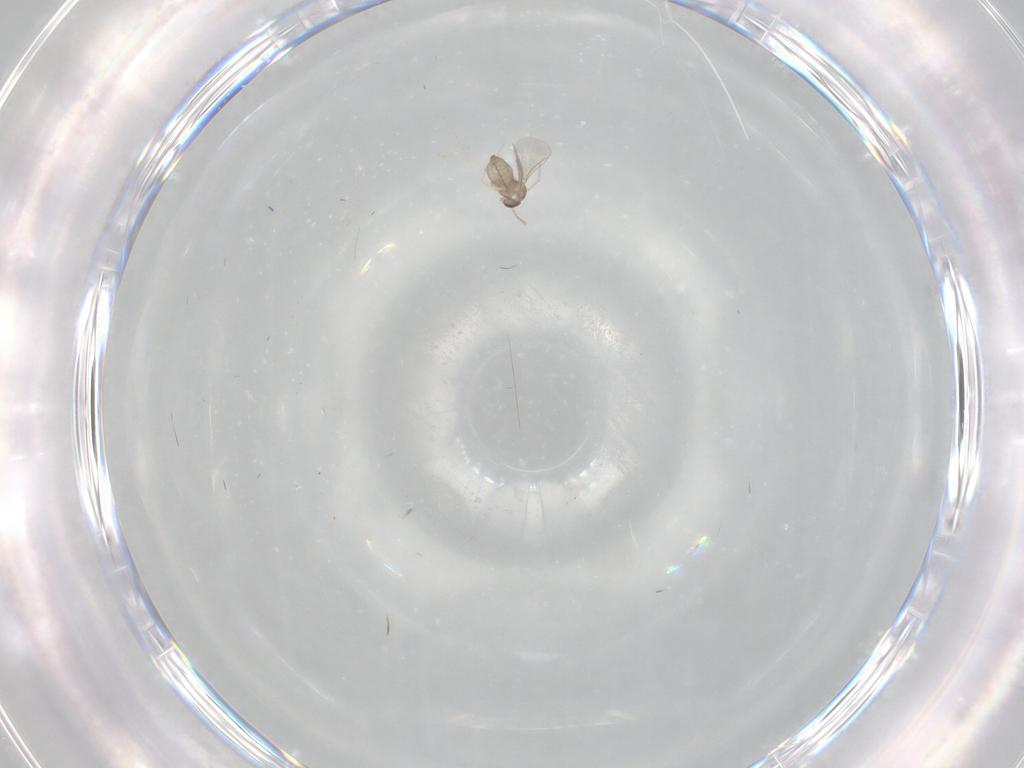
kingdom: Animalia
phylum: Arthropoda
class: Insecta
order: Diptera
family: Cecidomyiidae
